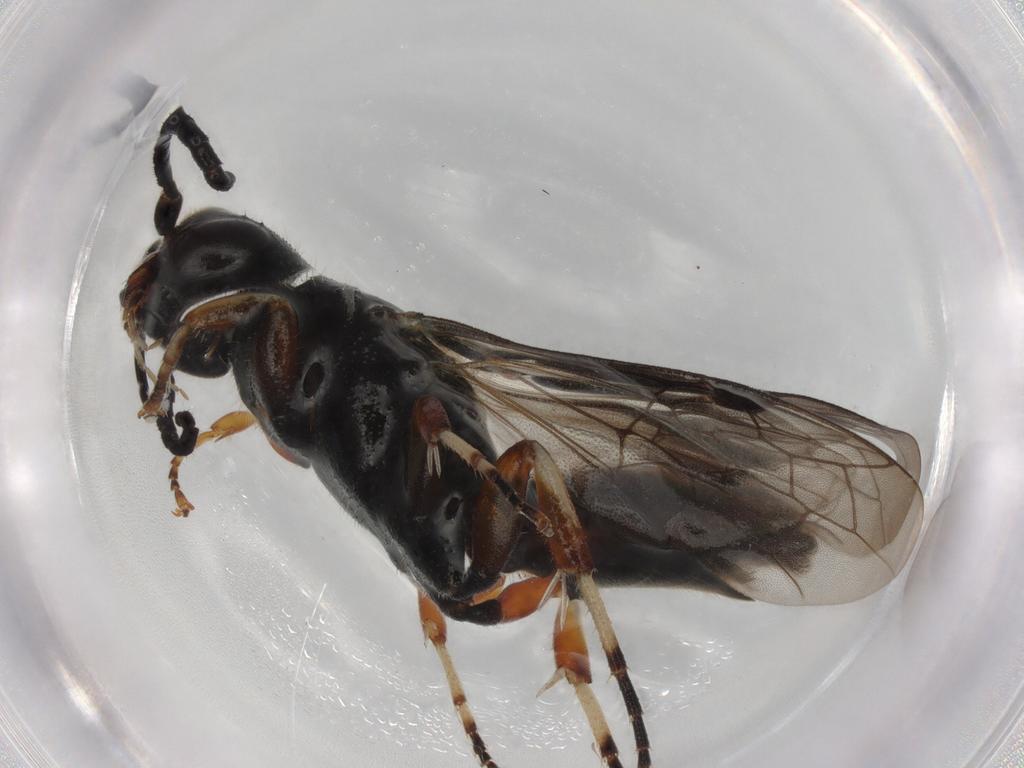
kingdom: Animalia
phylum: Arthropoda
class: Insecta
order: Hymenoptera
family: Thynnidae
